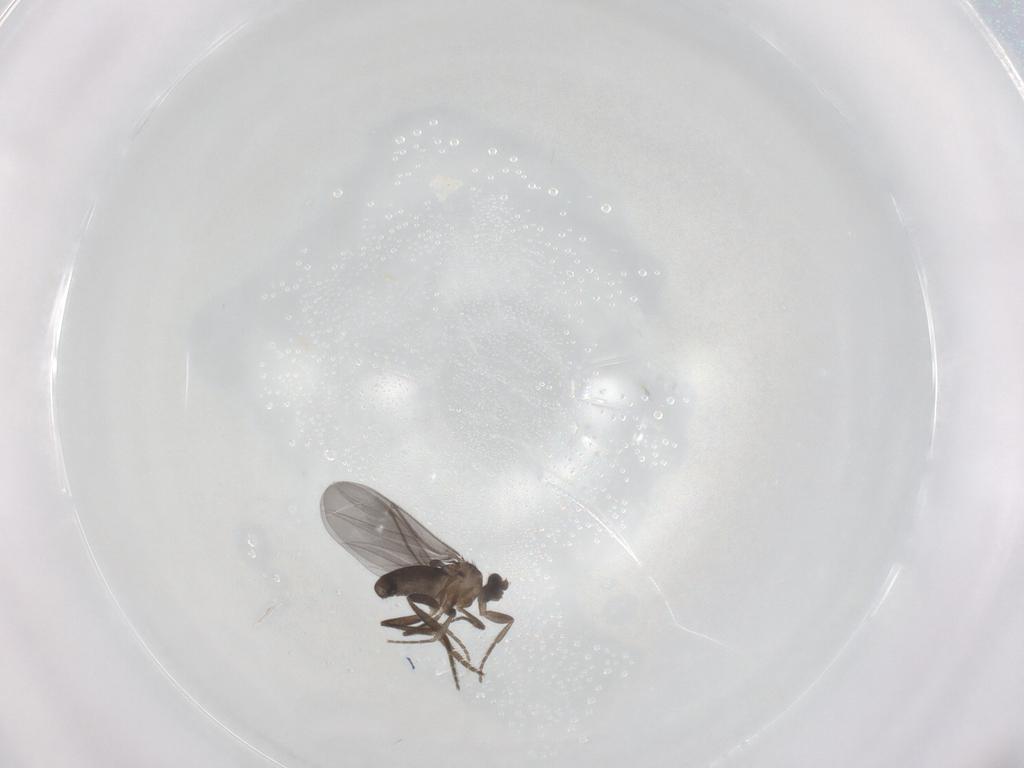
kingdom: Animalia
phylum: Arthropoda
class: Insecta
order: Diptera
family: Phoridae
